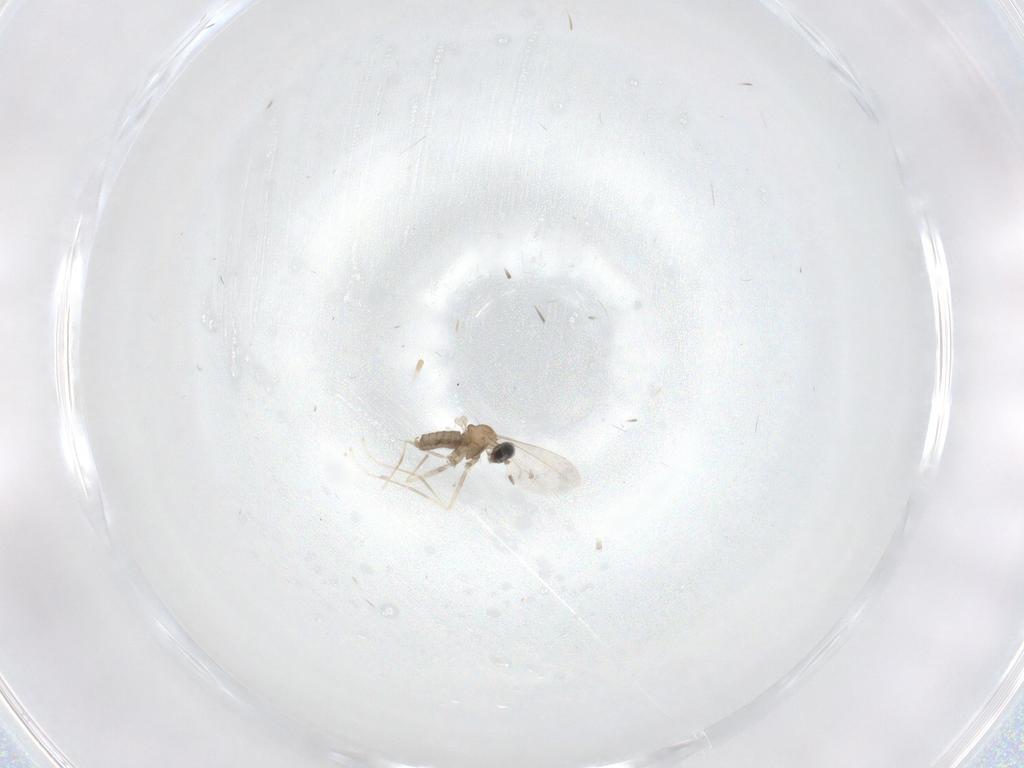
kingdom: Animalia
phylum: Arthropoda
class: Insecta
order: Diptera
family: Cecidomyiidae
